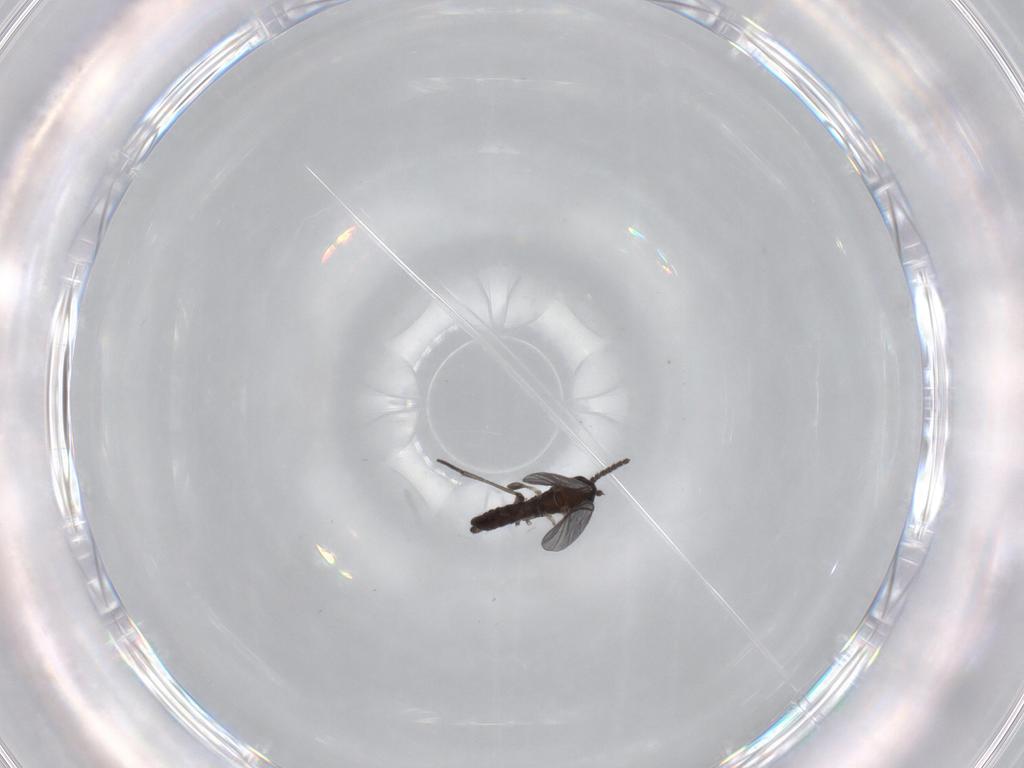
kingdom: Animalia
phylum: Arthropoda
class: Insecta
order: Diptera
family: Sciaridae
